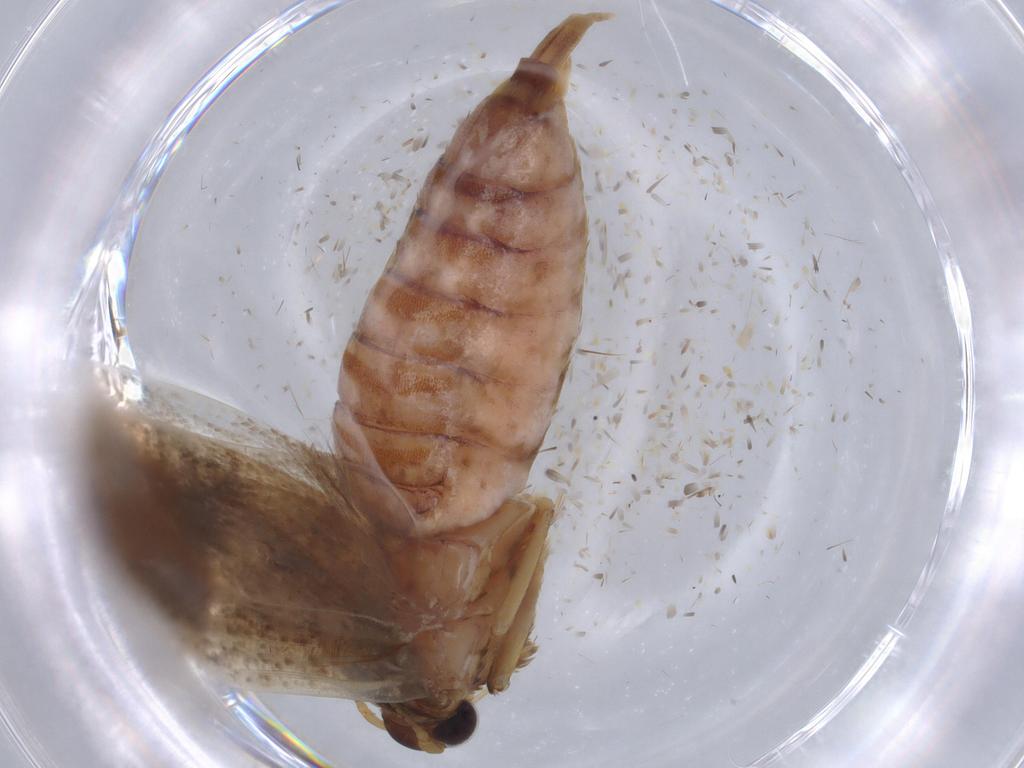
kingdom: Animalia
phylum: Arthropoda
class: Insecta
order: Lepidoptera
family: Blastobasidae
